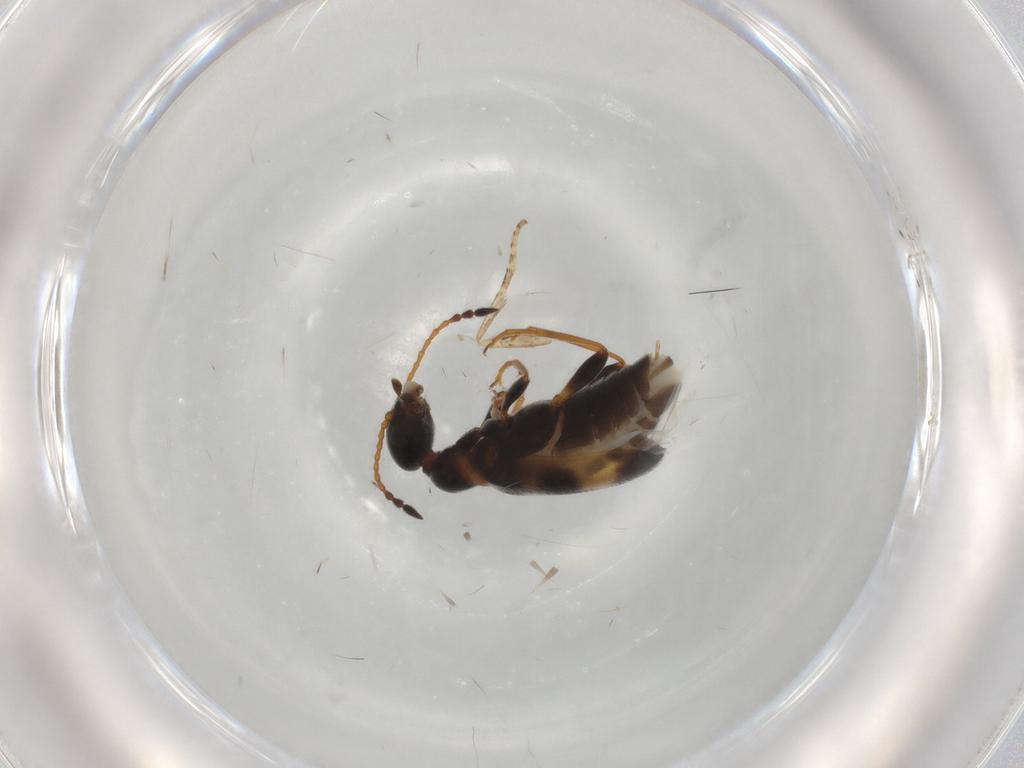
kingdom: Animalia
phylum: Arthropoda
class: Insecta
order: Coleoptera
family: Anthicidae
